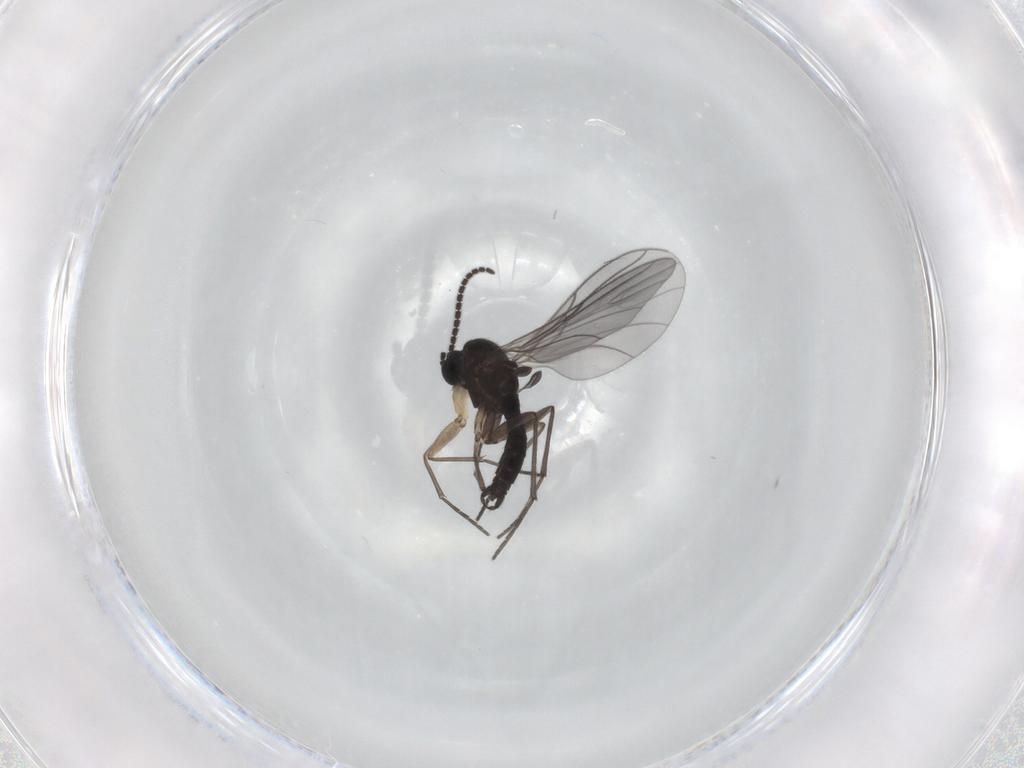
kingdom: Animalia
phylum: Arthropoda
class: Insecta
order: Diptera
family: Sciaridae
